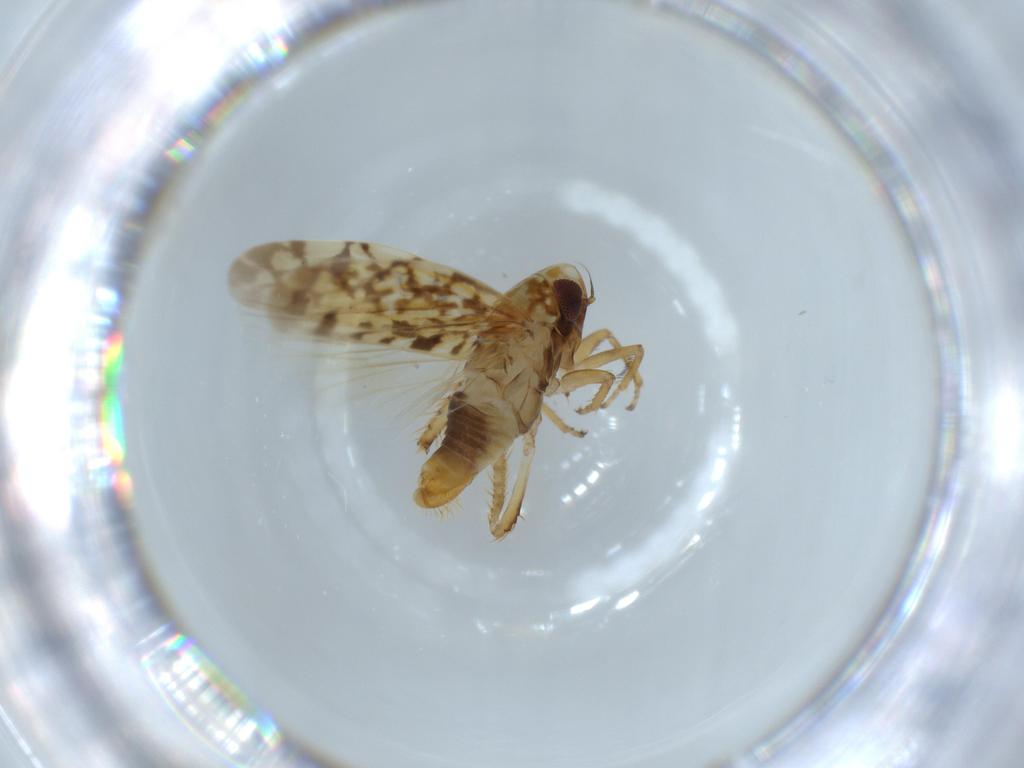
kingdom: Animalia
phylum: Arthropoda
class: Insecta
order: Hemiptera
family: Cicadellidae
